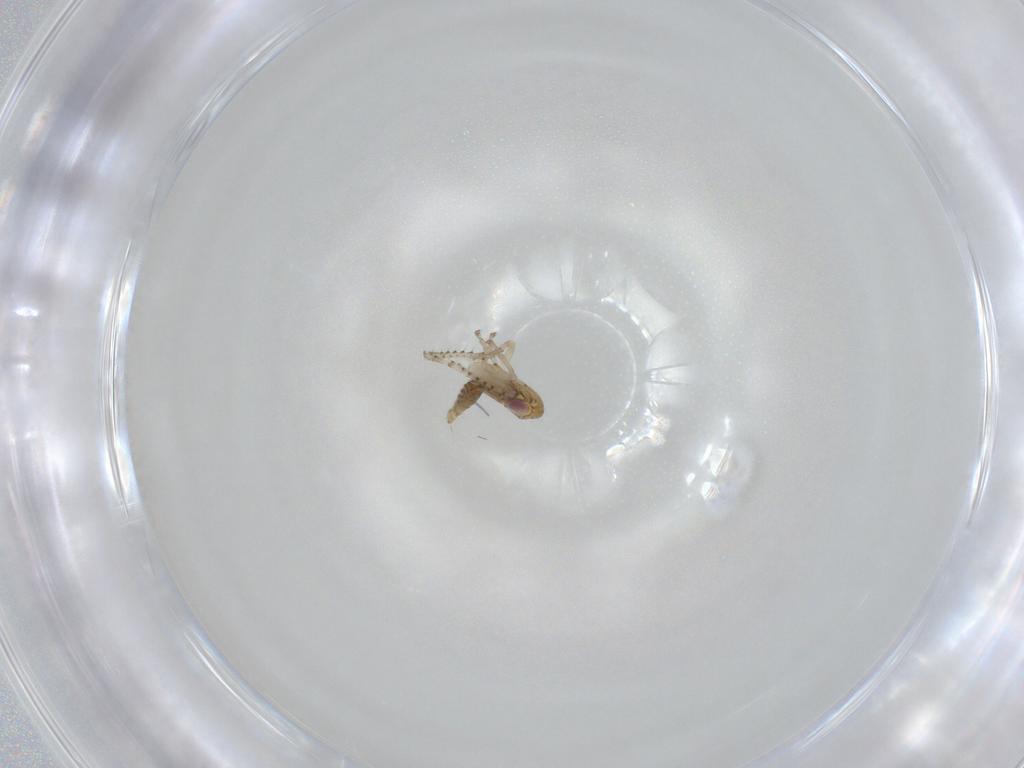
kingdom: Animalia
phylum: Arthropoda
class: Insecta
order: Hemiptera
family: Cicadellidae
